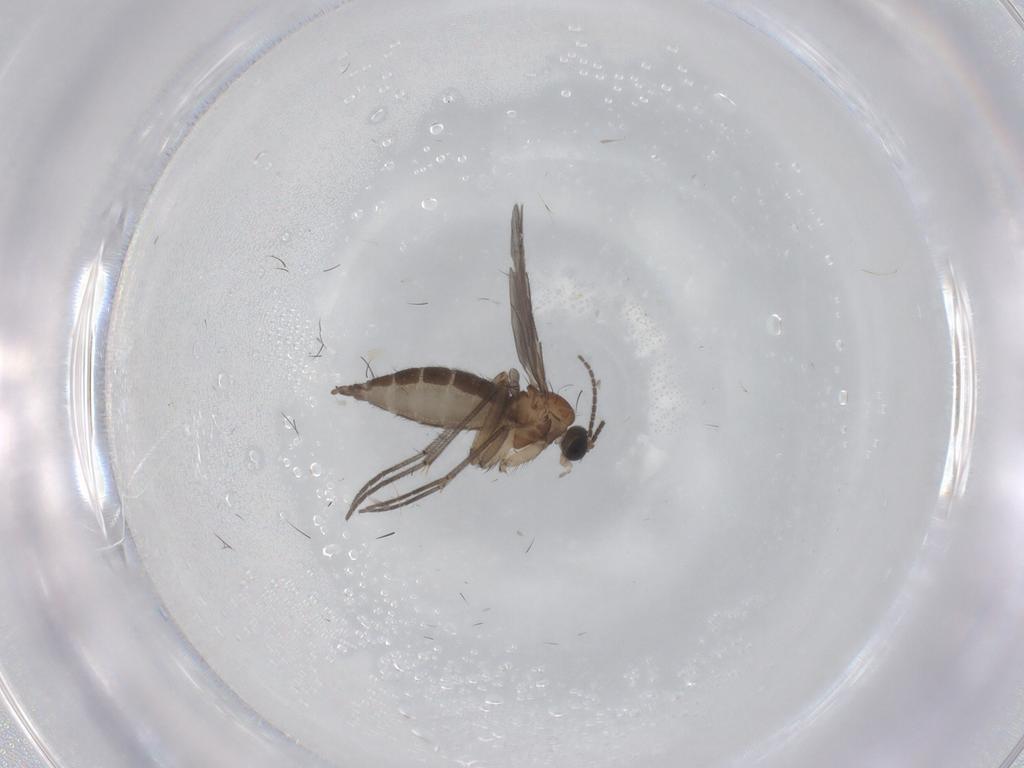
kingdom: Animalia
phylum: Arthropoda
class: Insecta
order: Diptera
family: Sciaridae
